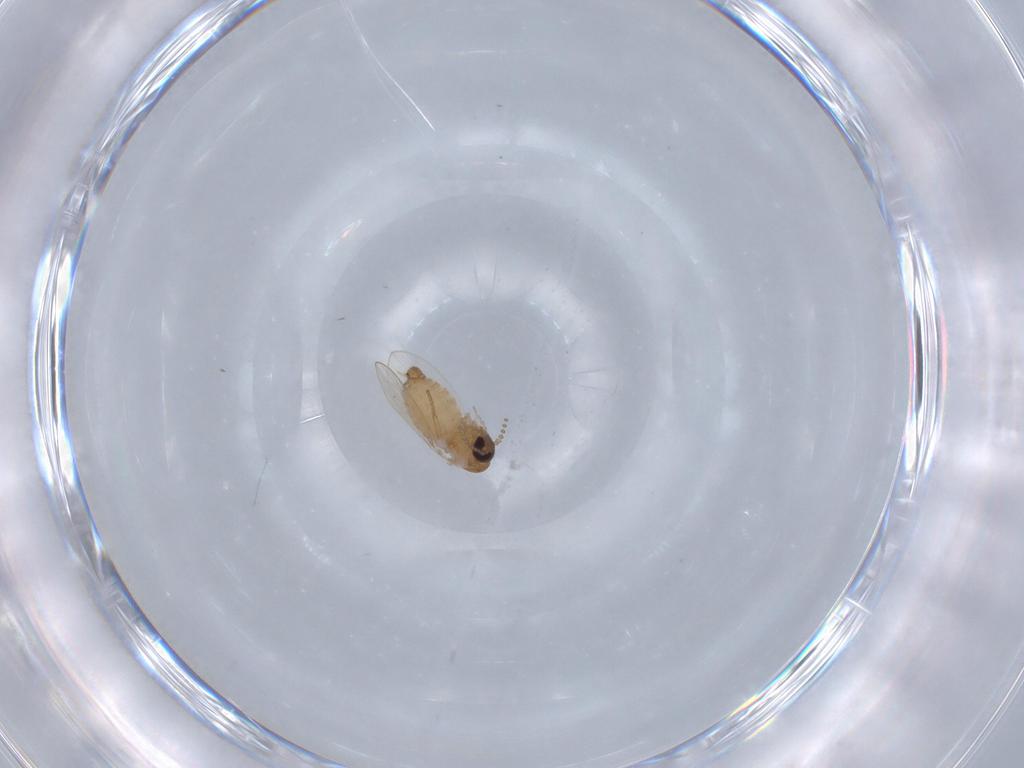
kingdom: Animalia
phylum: Arthropoda
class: Insecta
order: Diptera
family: Psychodidae
